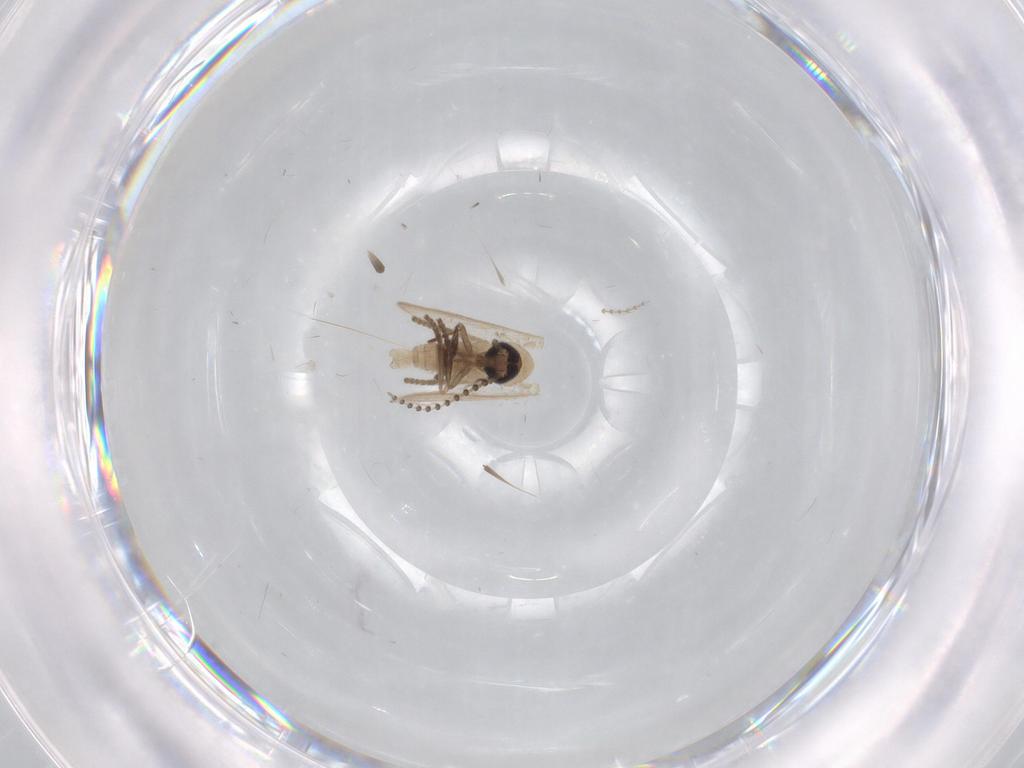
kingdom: Animalia
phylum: Arthropoda
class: Insecta
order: Diptera
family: Psychodidae
